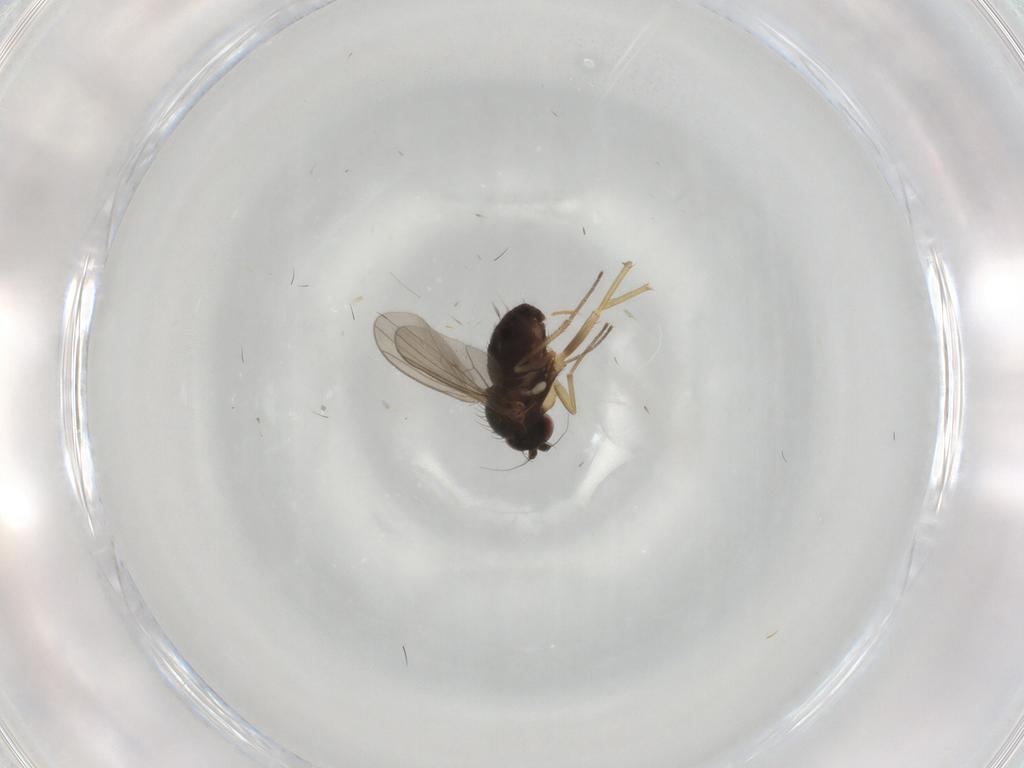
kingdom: Animalia
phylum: Arthropoda
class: Insecta
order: Diptera
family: Dolichopodidae
